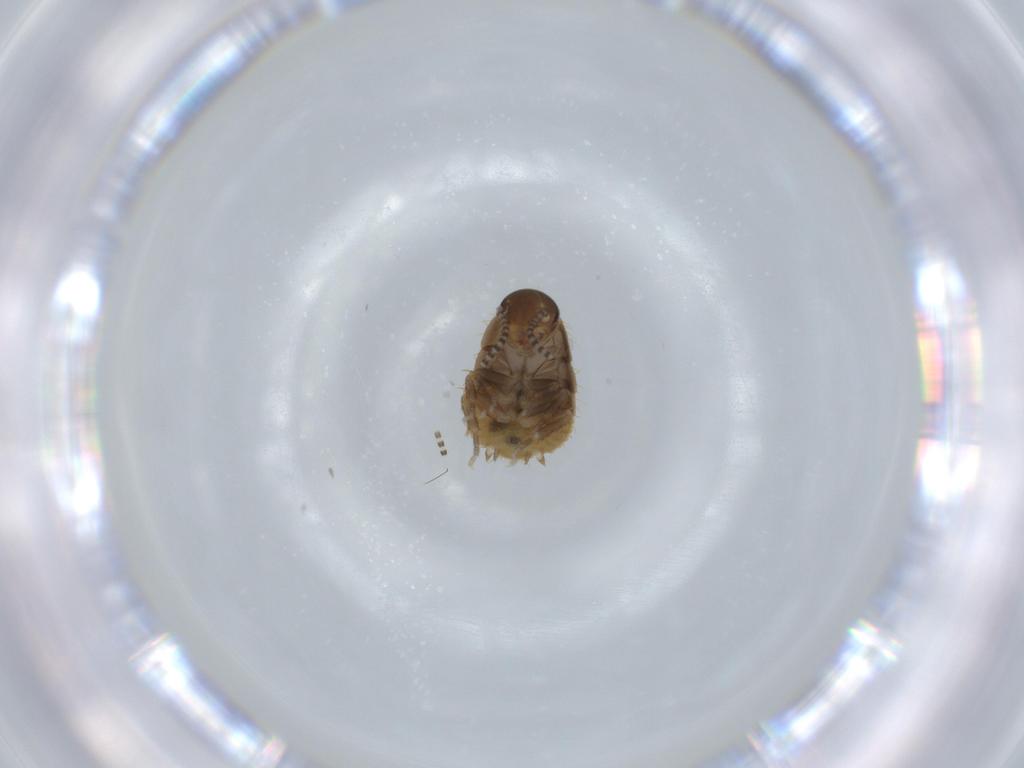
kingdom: Animalia
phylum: Arthropoda
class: Insecta
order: Blattodea
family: Blaberidae
